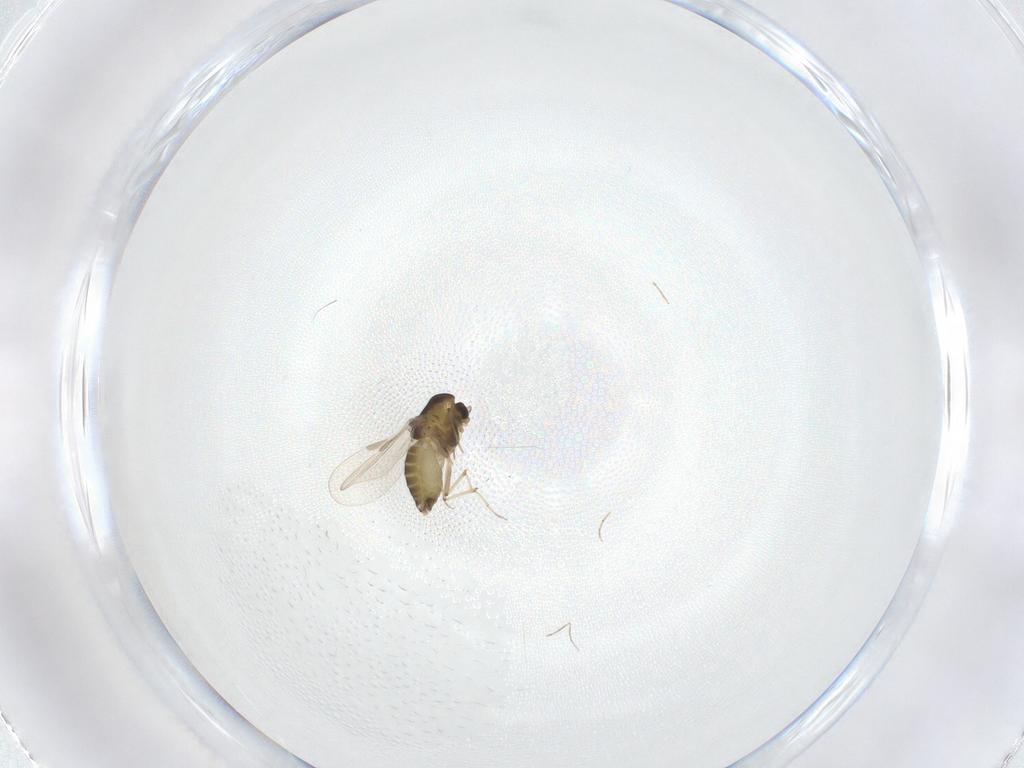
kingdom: Animalia
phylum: Arthropoda
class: Insecta
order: Diptera
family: Chironomidae
